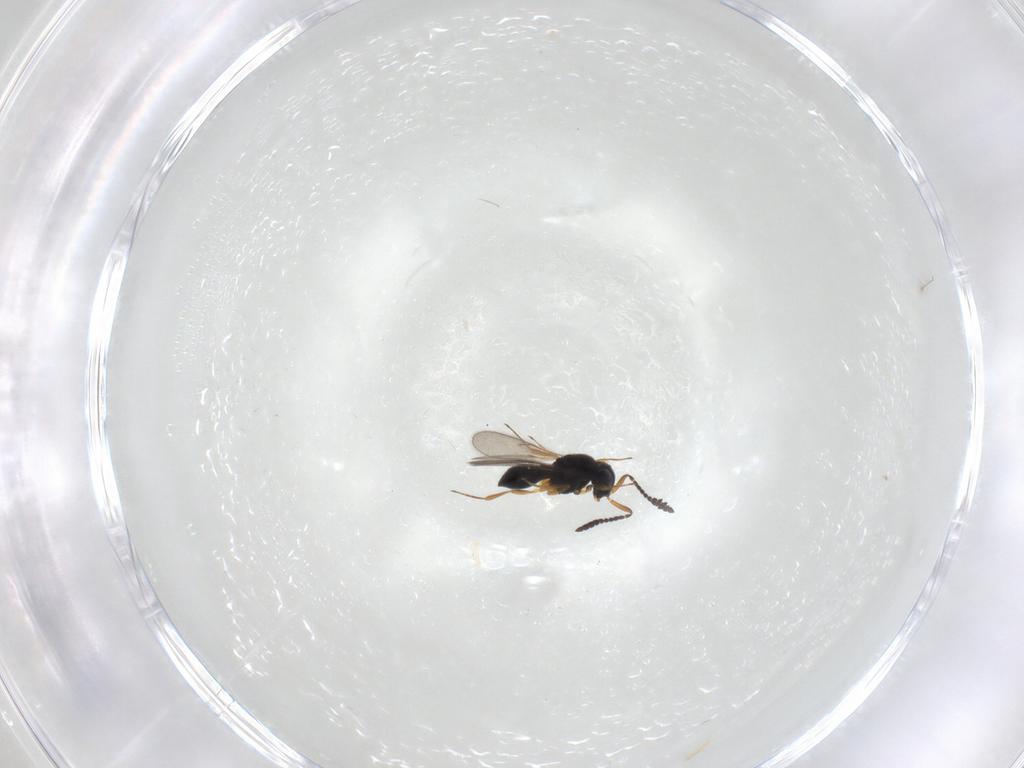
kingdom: Animalia
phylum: Arthropoda
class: Insecta
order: Hymenoptera
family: Scelionidae
